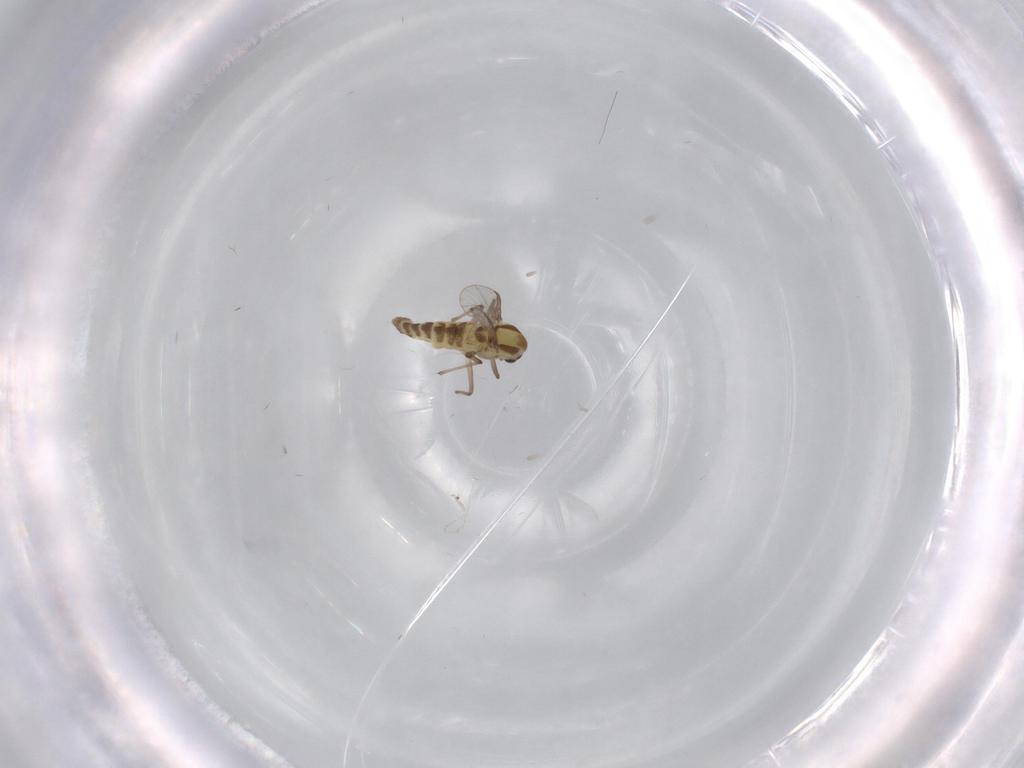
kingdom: Animalia
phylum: Arthropoda
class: Insecta
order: Diptera
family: Chironomidae
